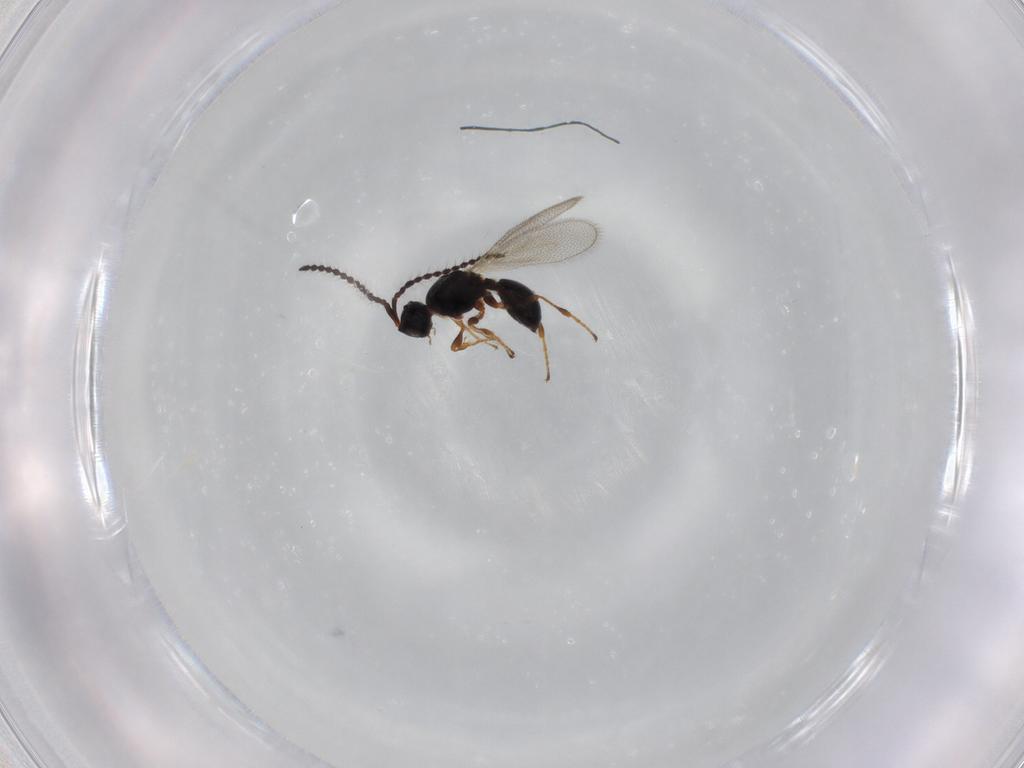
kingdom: Animalia
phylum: Arthropoda
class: Insecta
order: Hymenoptera
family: Diapriidae
